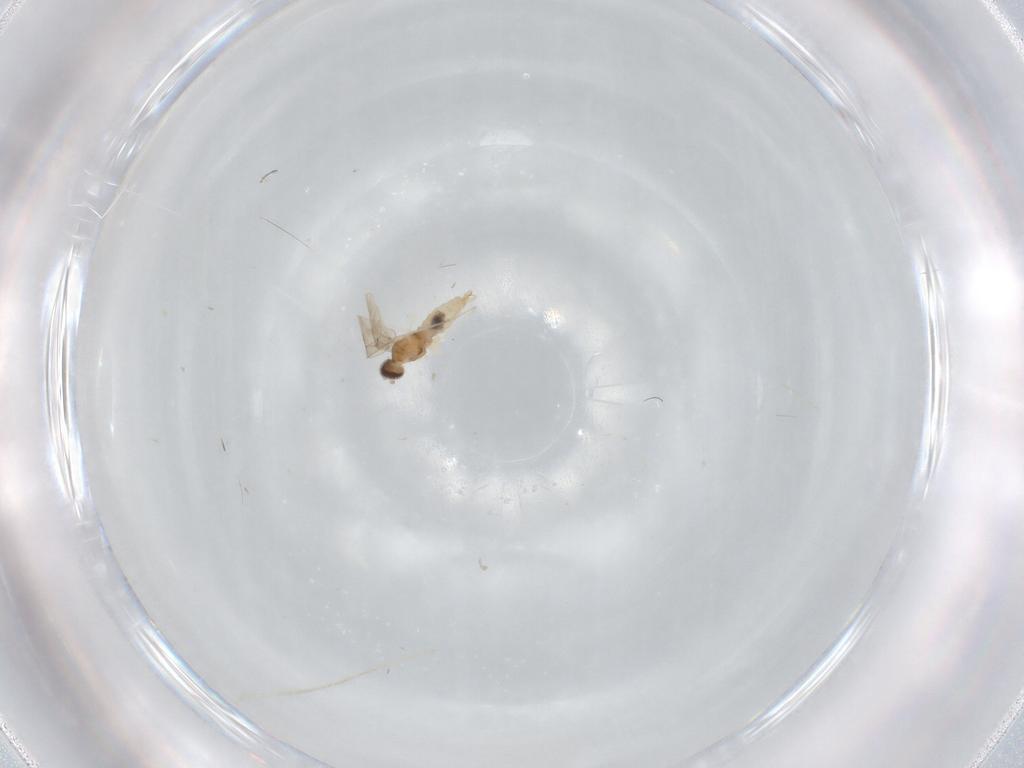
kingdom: Animalia
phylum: Arthropoda
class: Insecta
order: Diptera
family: Cecidomyiidae
